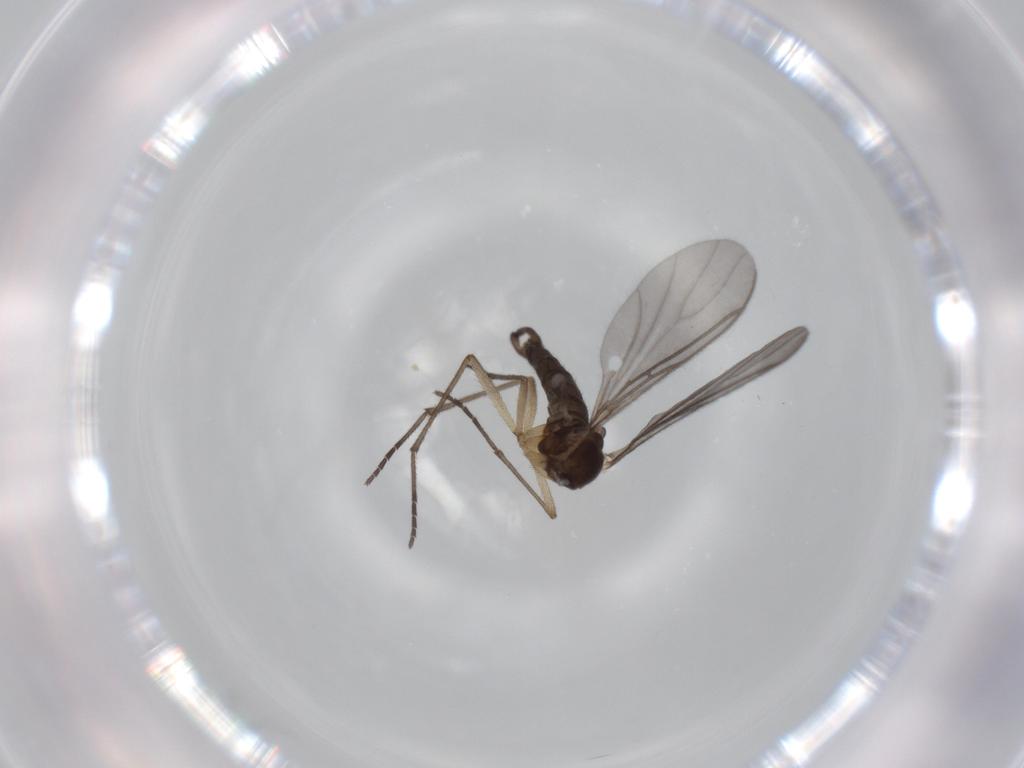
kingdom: Animalia
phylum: Arthropoda
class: Insecta
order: Diptera
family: Sciaridae
